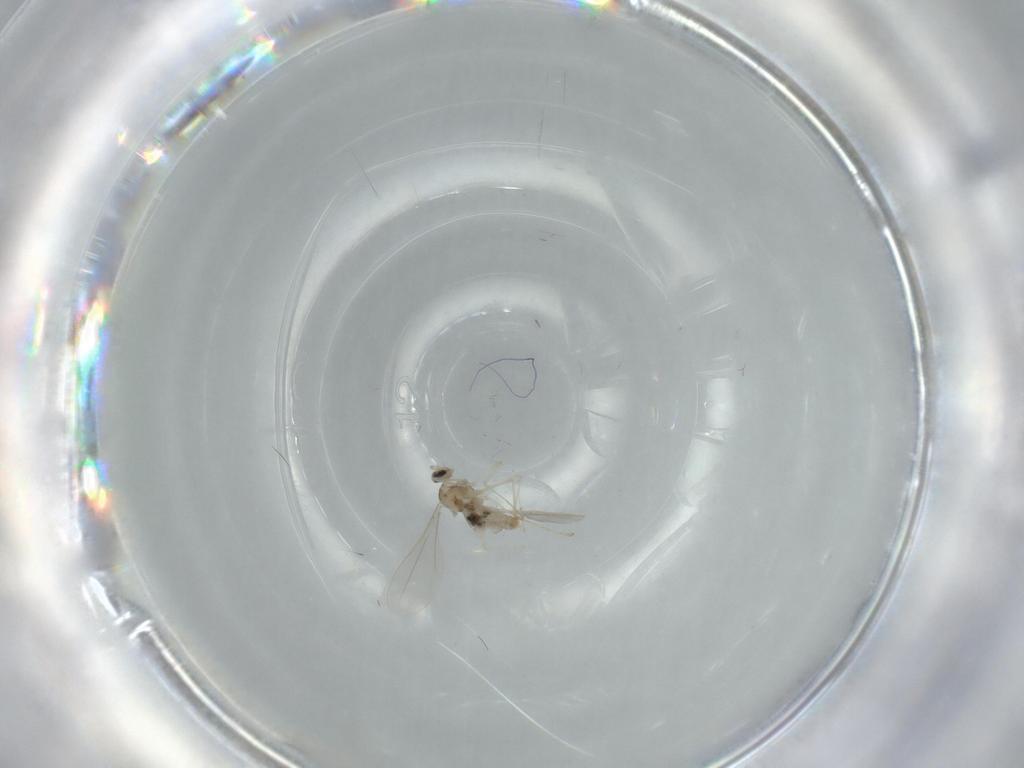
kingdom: Animalia
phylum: Arthropoda
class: Insecta
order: Diptera
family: Cecidomyiidae
